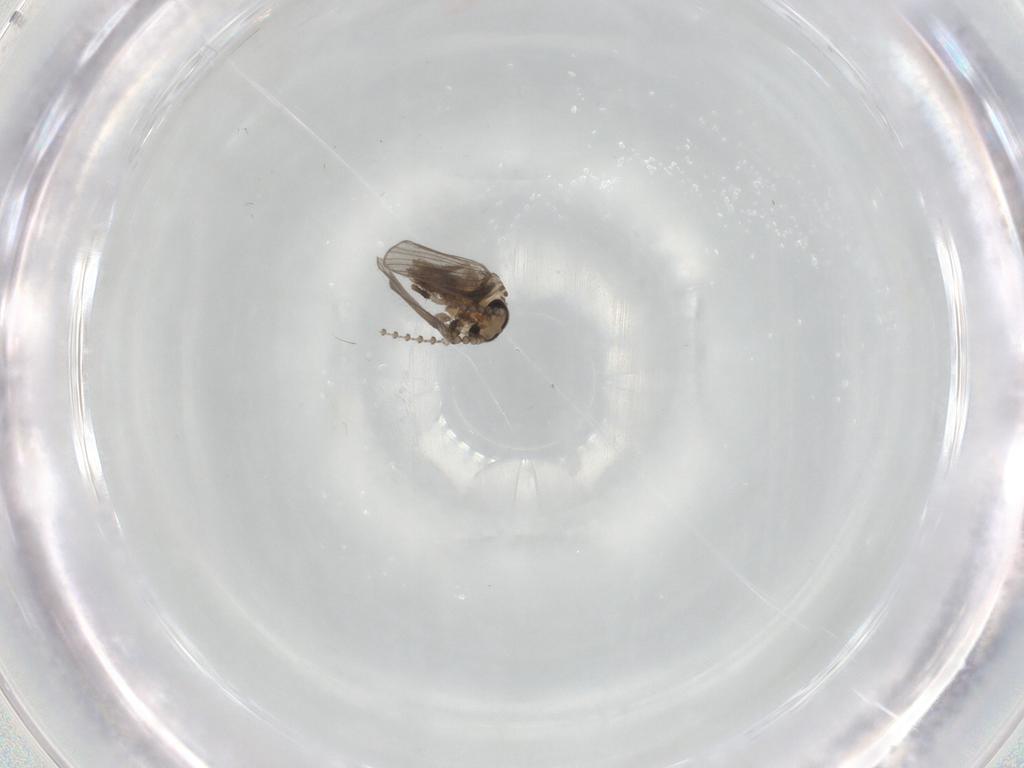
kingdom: Animalia
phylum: Arthropoda
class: Insecta
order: Diptera
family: Psychodidae
